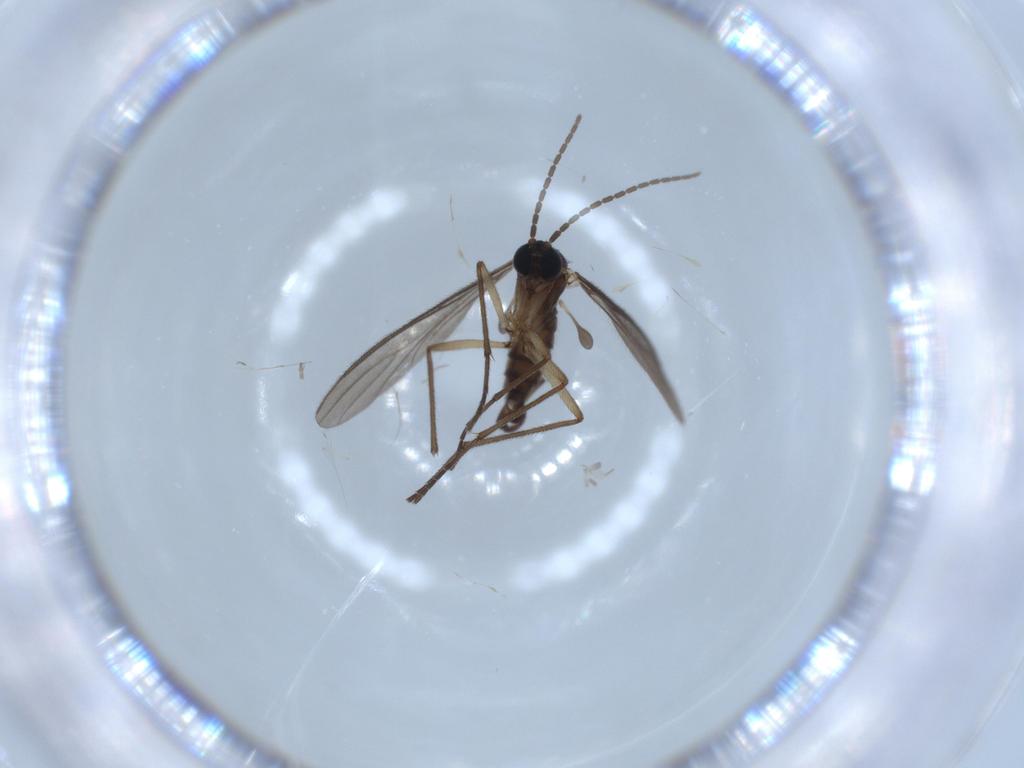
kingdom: Animalia
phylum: Arthropoda
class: Insecta
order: Diptera
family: Sciaridae
